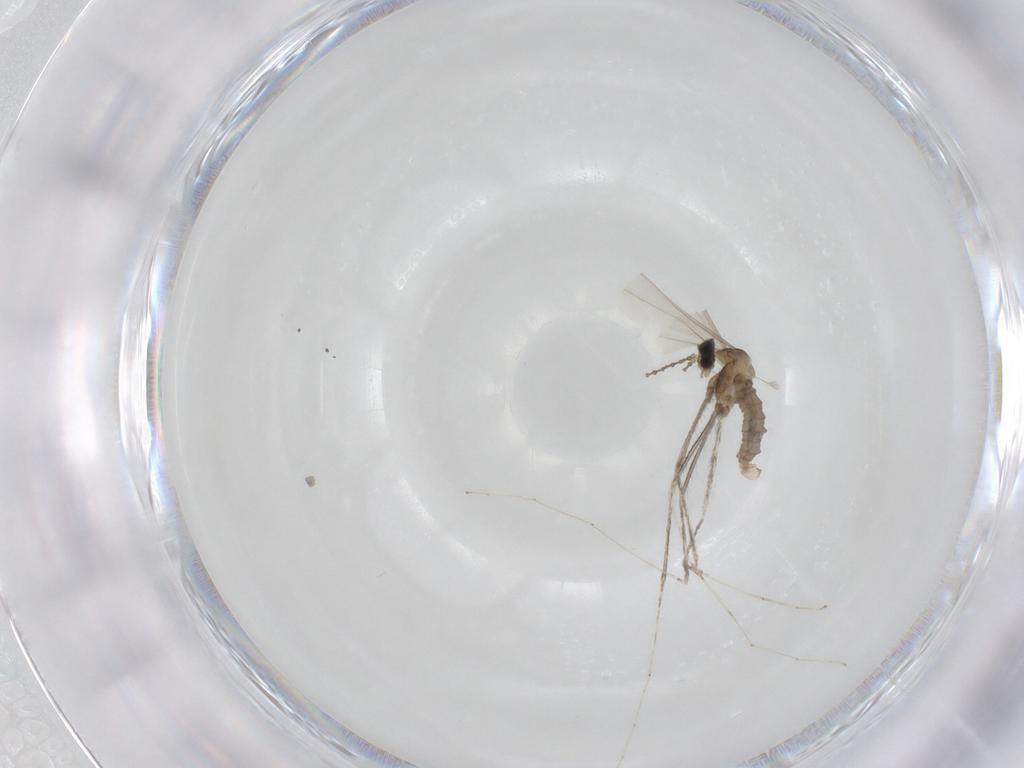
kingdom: Animalia
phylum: Arthropoda
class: Insecta
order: Diptera
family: Cecidomyiidae
